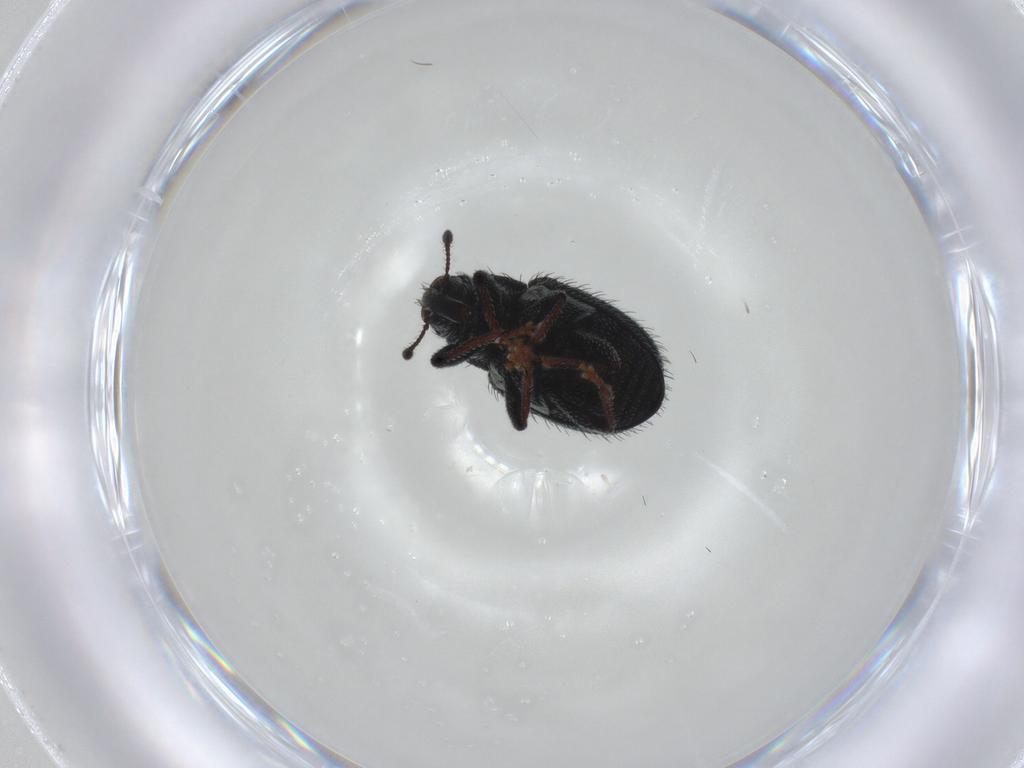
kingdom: Animalia
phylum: Arthropoda
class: Insecta
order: Coleoptera
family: Curculionidae
